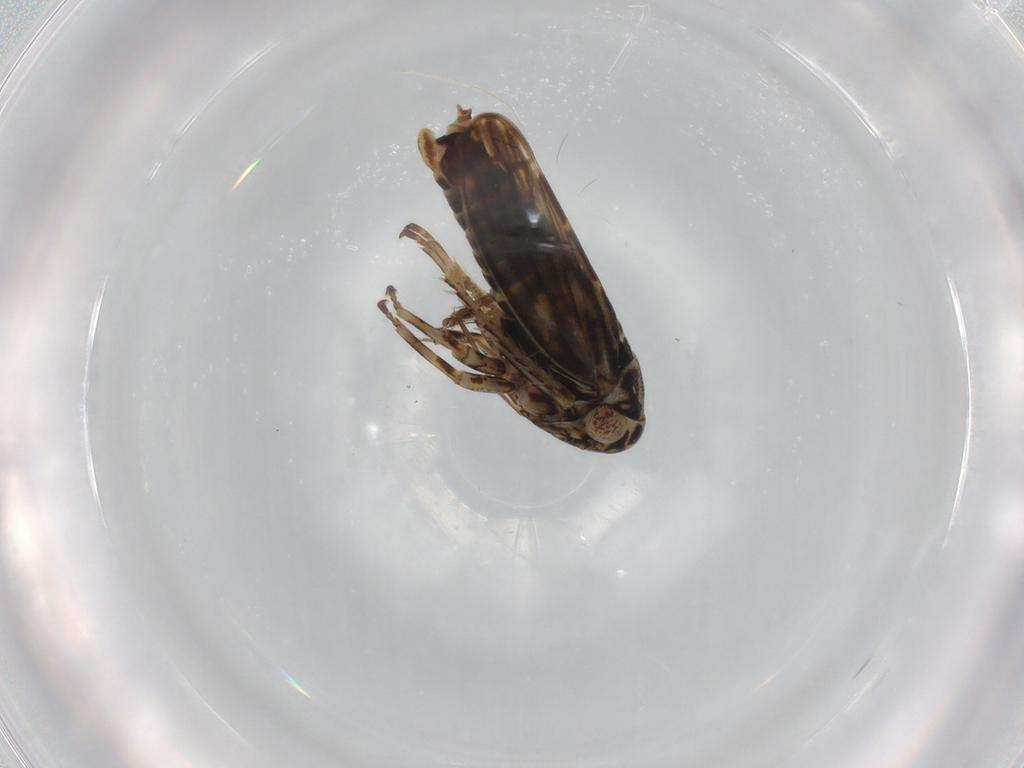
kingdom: Animalia
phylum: Arthropoda
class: Insecta
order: Hemiptera
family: Cicadellidae
